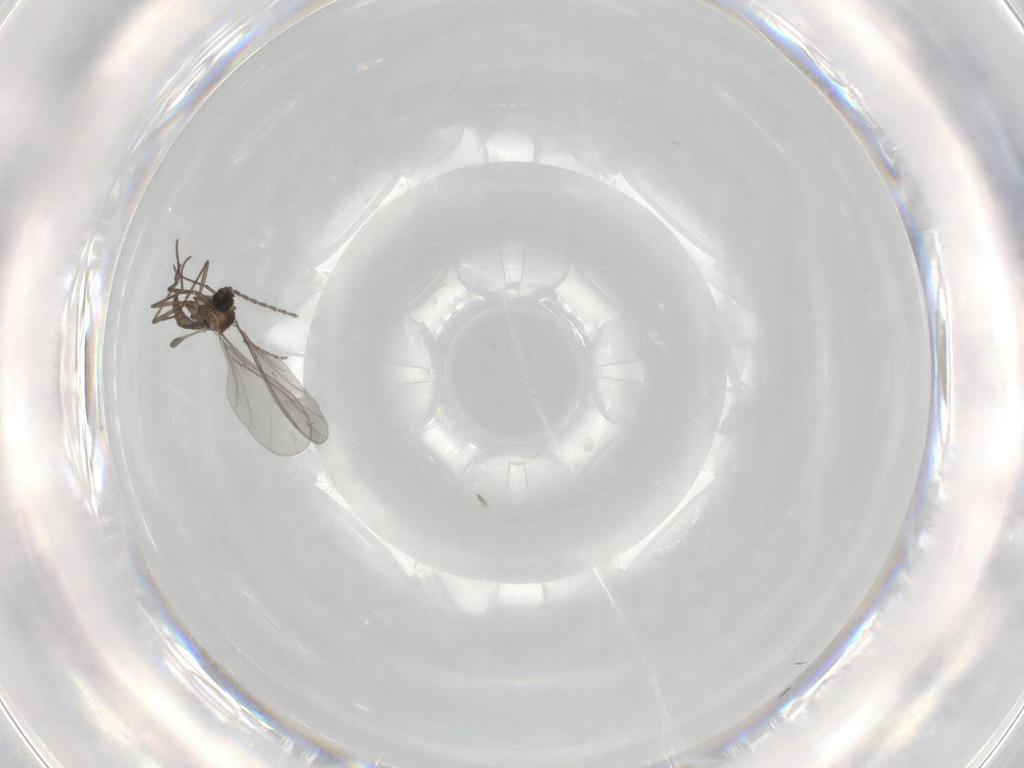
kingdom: Animalia
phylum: Arthropoda
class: Insecta
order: Diptera
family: Sciaridae
